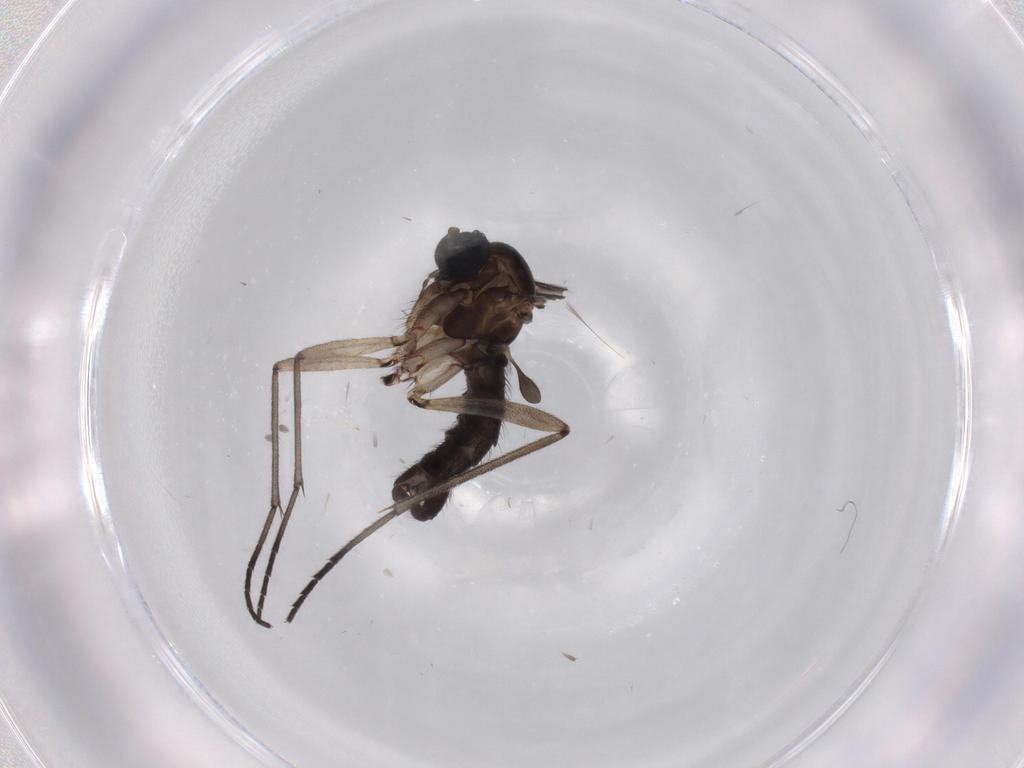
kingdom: Animalia
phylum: Arthropoda
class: Insecta
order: Diptera
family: Sciaridae
